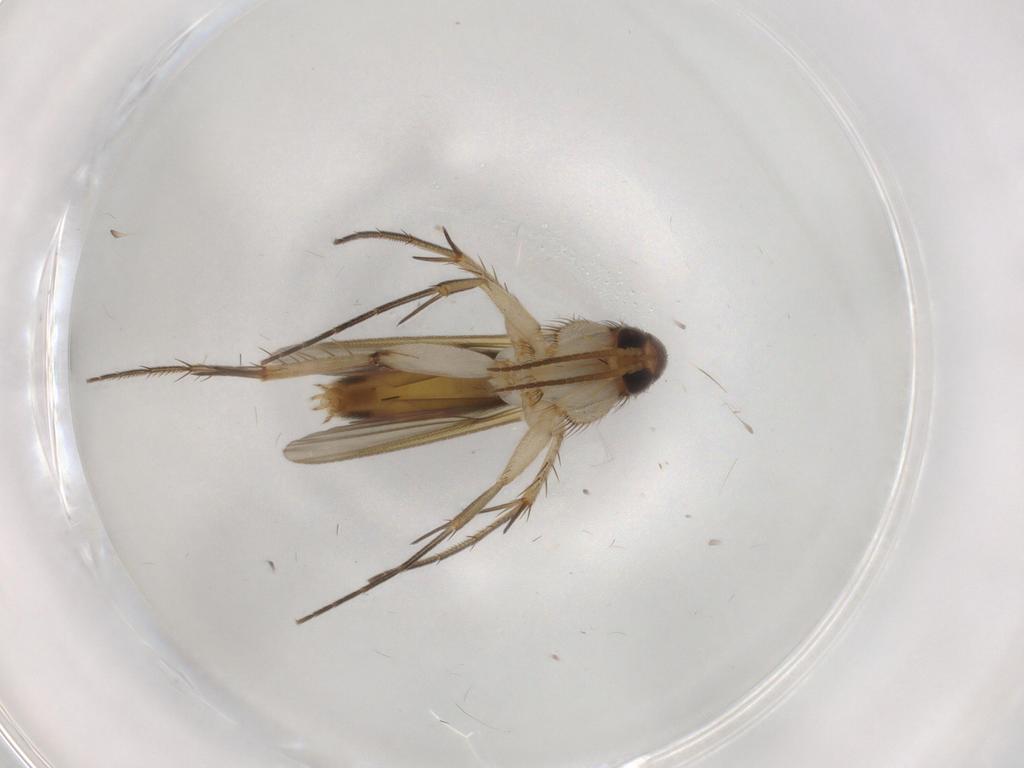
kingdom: Animalia
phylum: Arthropoda
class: Insecta
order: Diptera
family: Mycetophilidae
